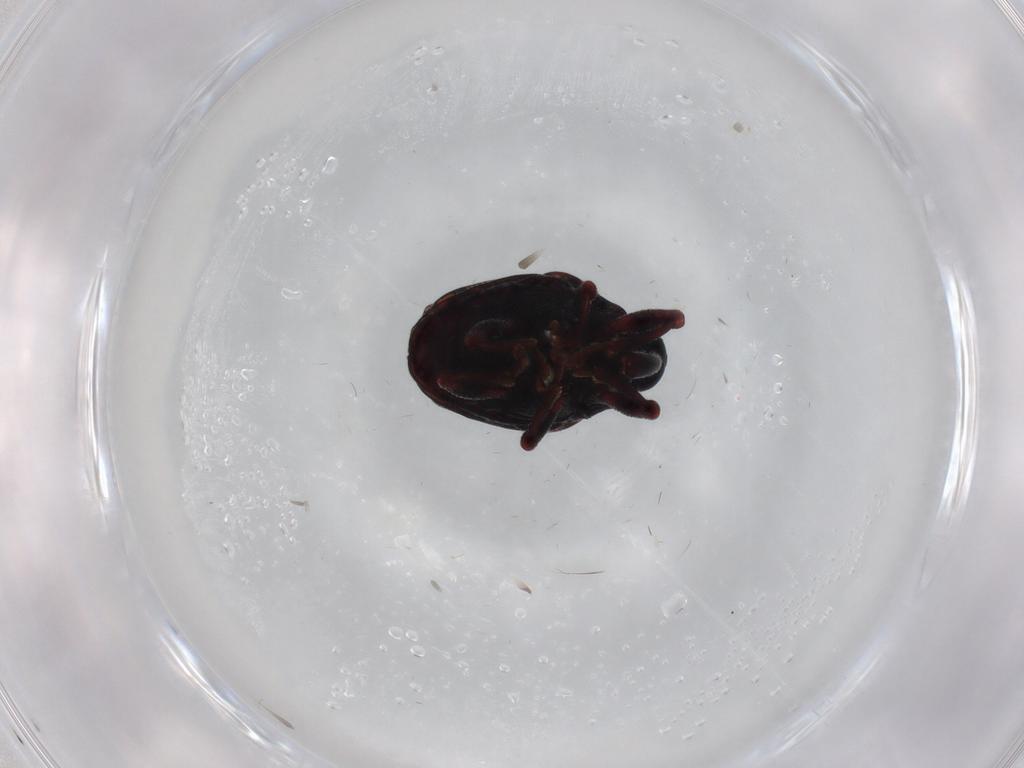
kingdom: Animalia
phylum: Arthropoda
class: Insecta
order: Coleoptera
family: Curculionidae
